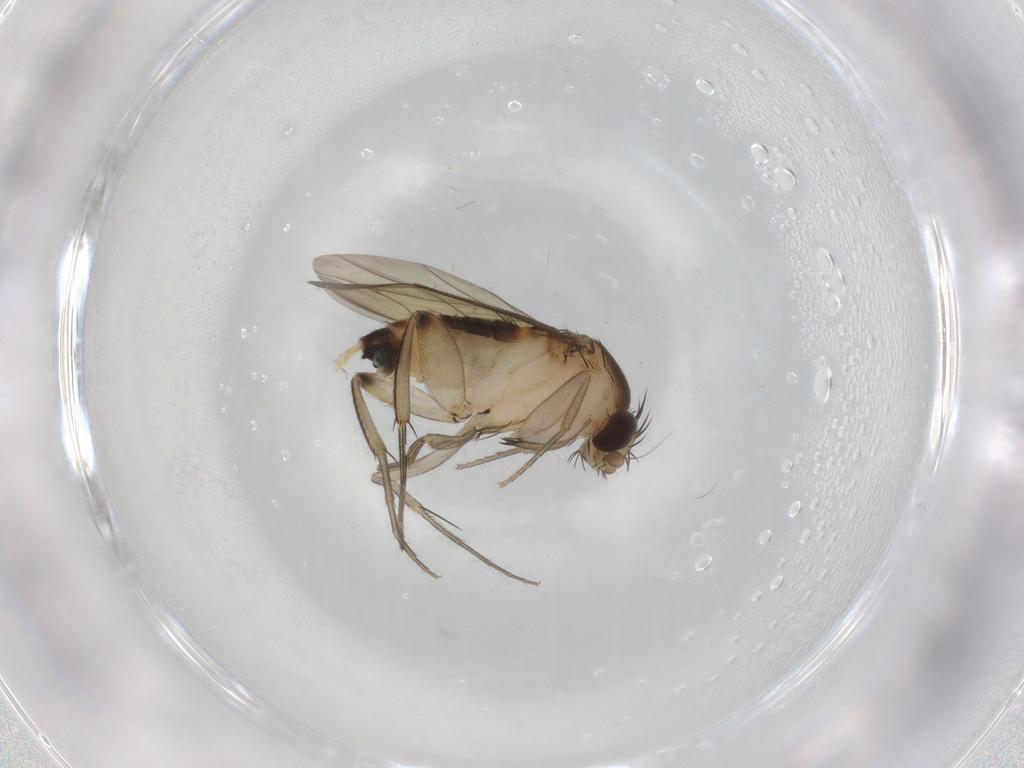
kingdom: Animalia
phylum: Arthropoda
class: Insecta
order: Diptera
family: Phoridae
